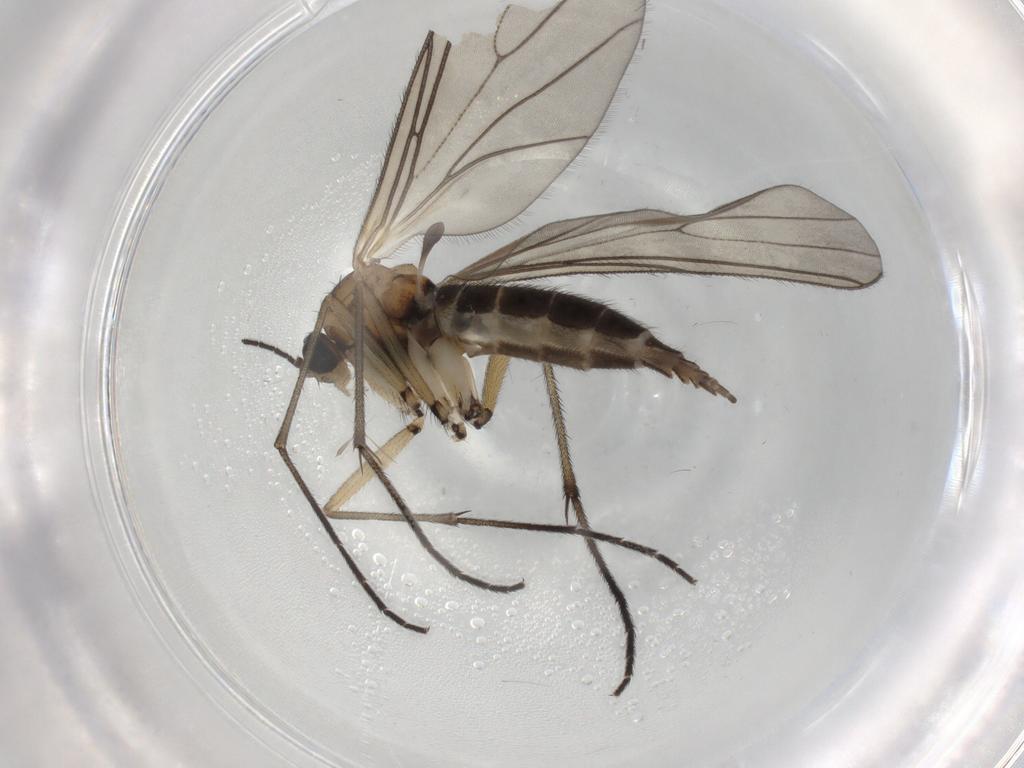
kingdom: Animalia
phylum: Arthropoda
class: Insecta
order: Diptera
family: Sciaridae
